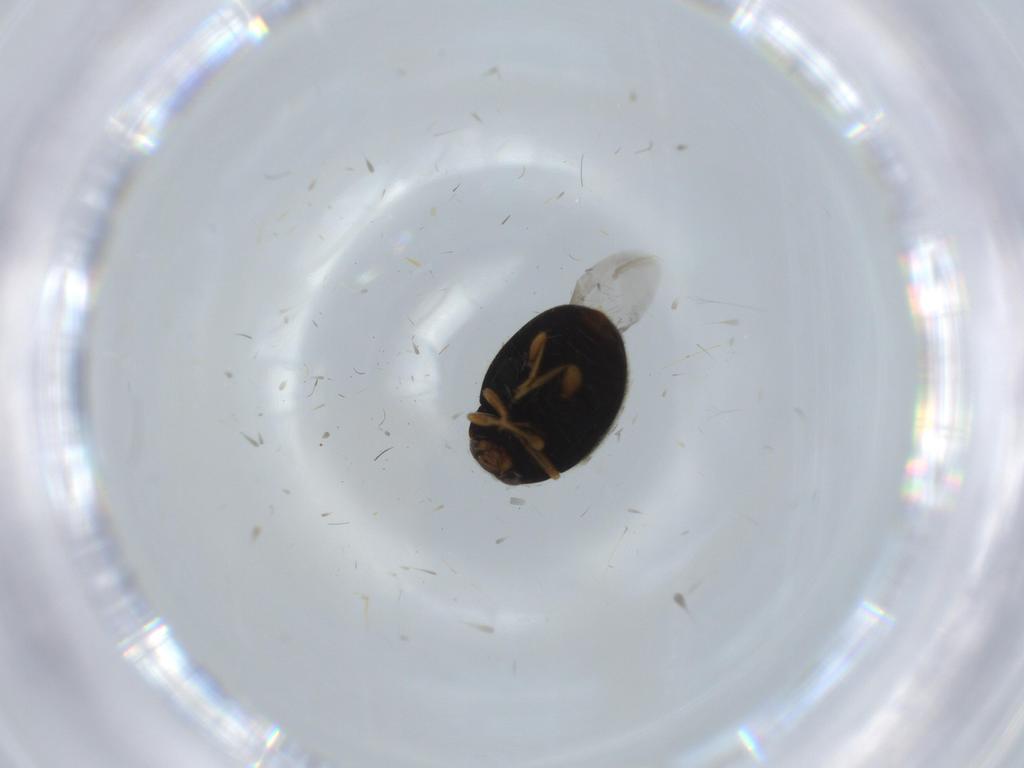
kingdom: Animalia
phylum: Arthropoda
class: Insecta
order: Coleoptera
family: Coccinellidae
